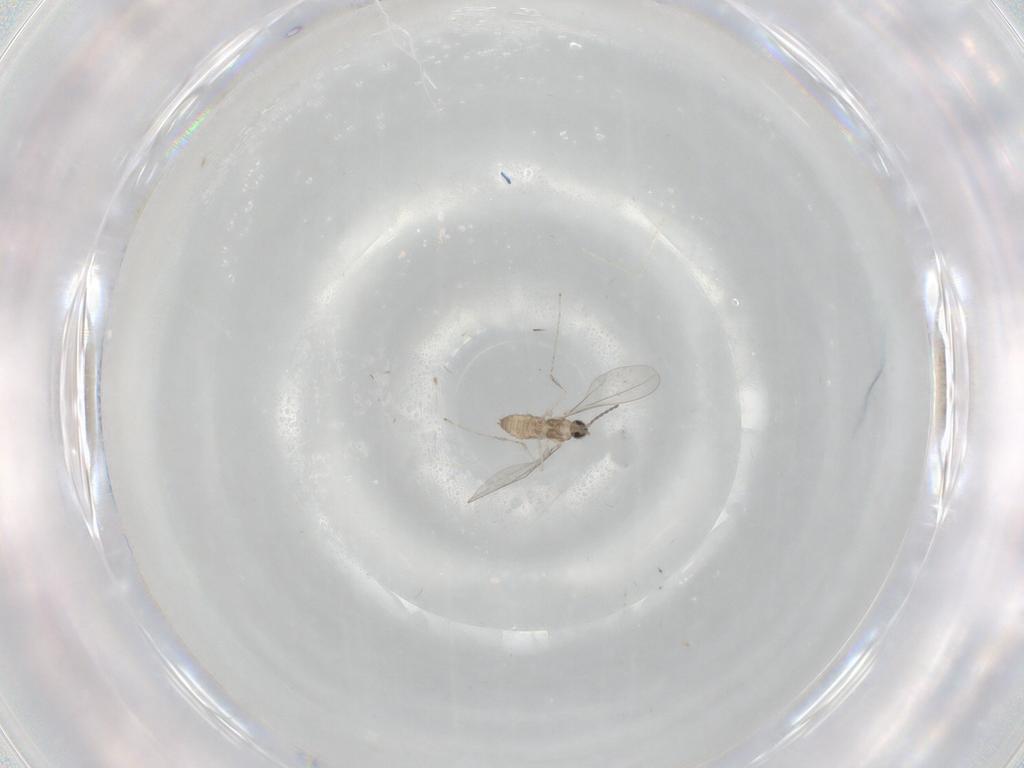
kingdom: Animalia
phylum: Arthropoda
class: Insecta
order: Diptera
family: Cecidomyiidae
